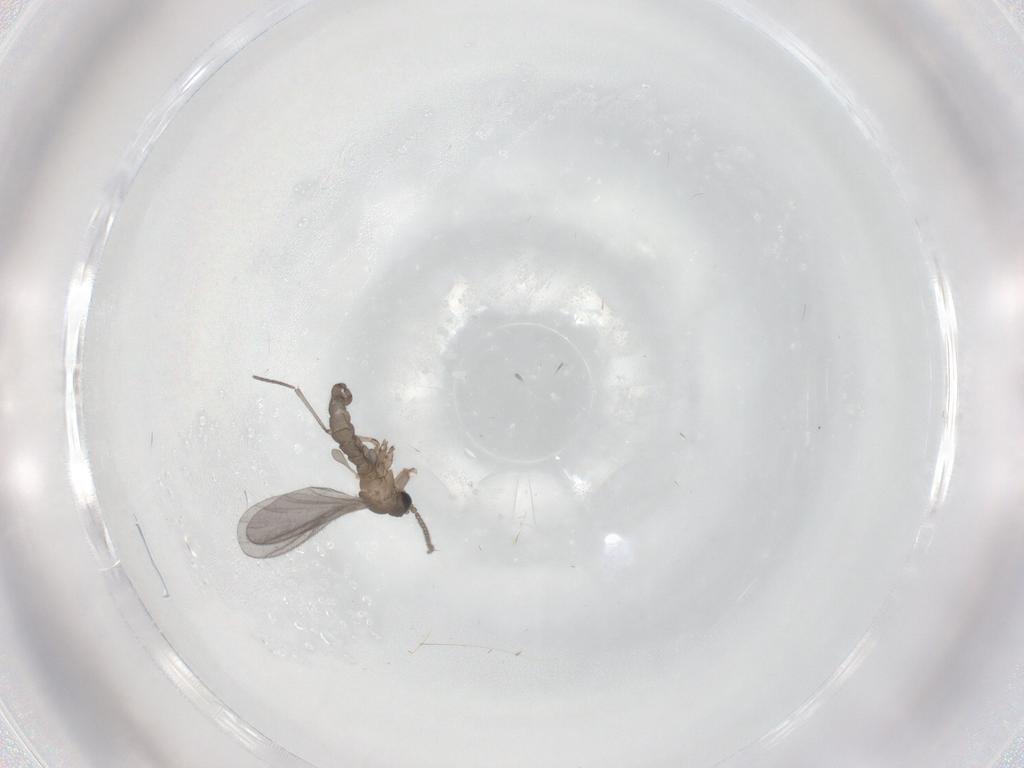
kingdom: Animalia
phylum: Arthropoda
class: Insecta
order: Diptera
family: Sciaridae
